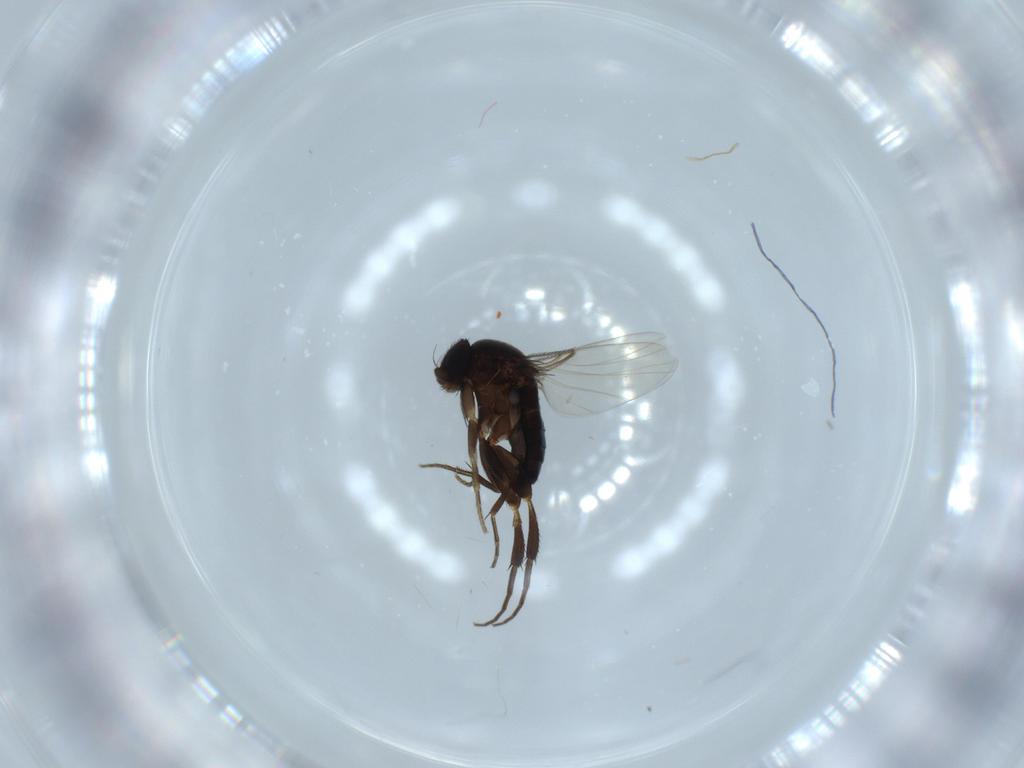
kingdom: Animalia
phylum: Arthropoda
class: Insecta
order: Diptera
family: Phoridae
